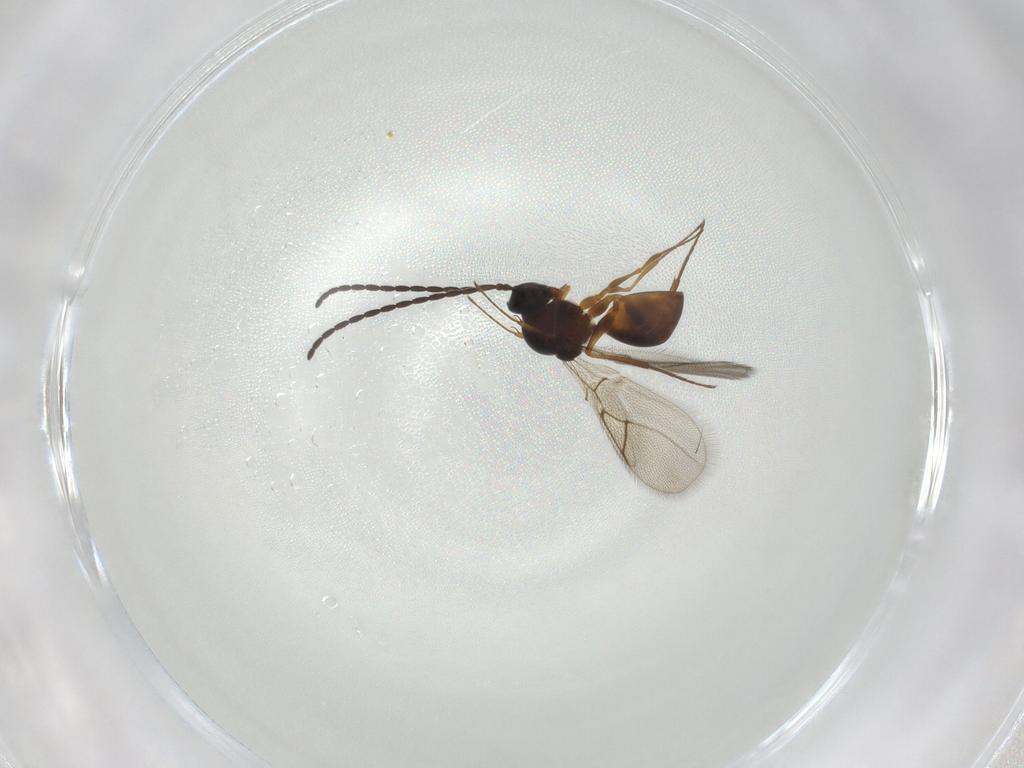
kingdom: Animalia
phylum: Arthropoda
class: Insecta
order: Hymenoptera
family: Figitidae
